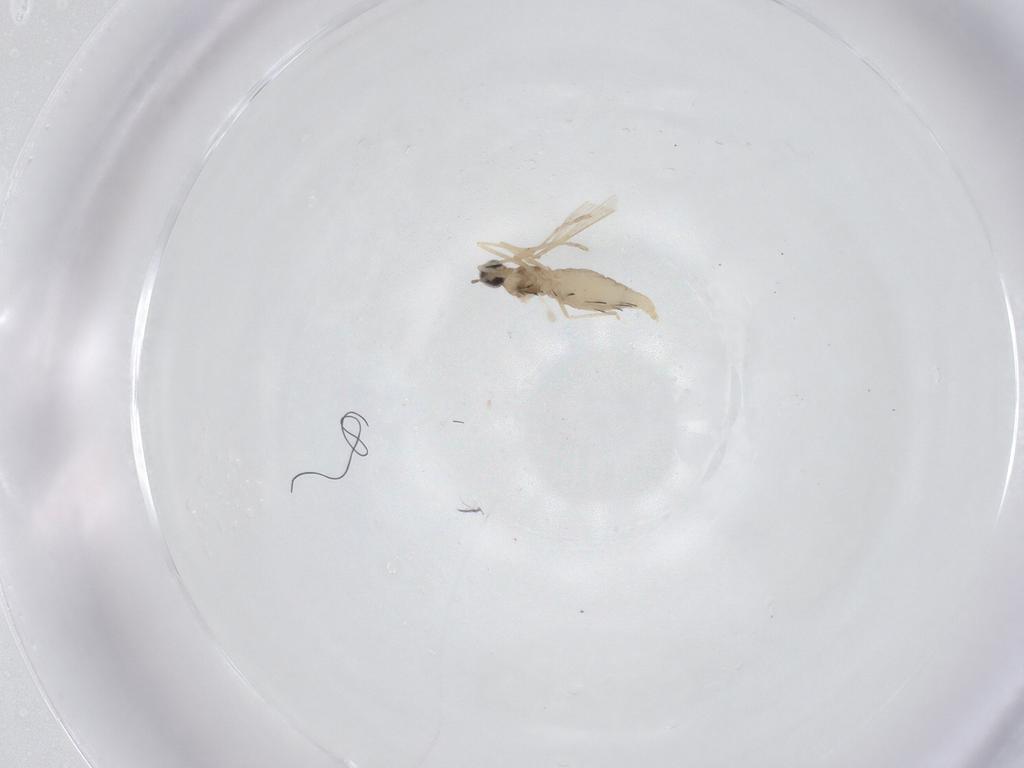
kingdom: Animalia
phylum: Arthropoda
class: Insecta
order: Diptera
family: Cecidomyiidae
